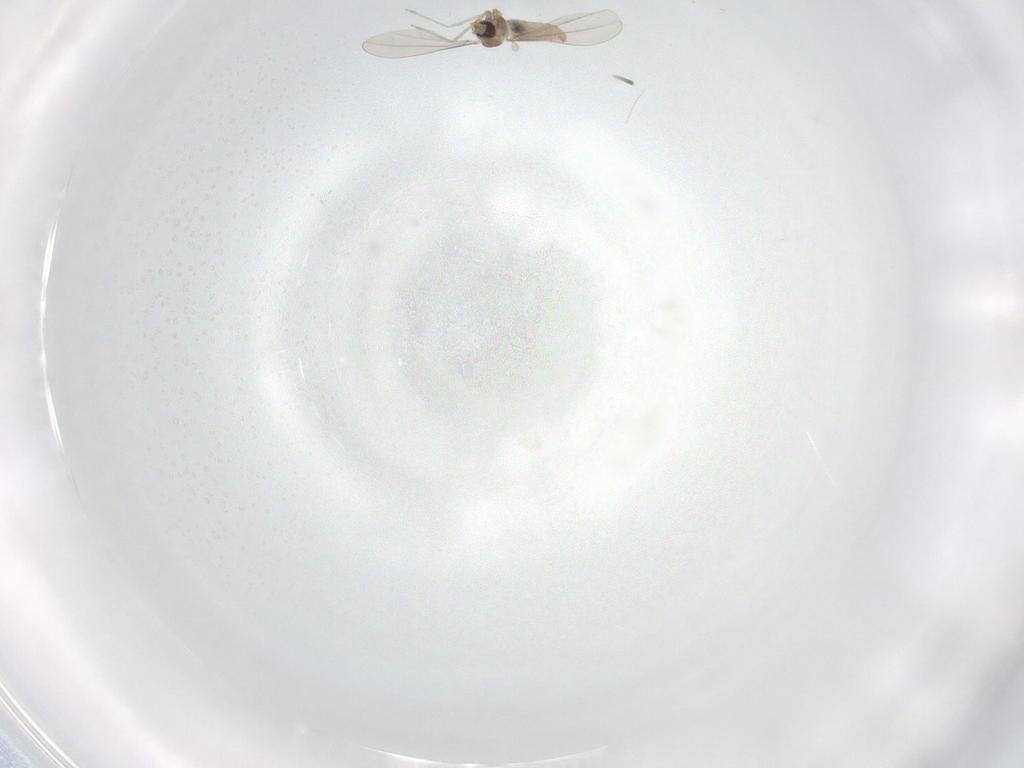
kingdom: Animalia
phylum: Arthropoda
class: Insecta
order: Diptera
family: Cecidomyiidae
